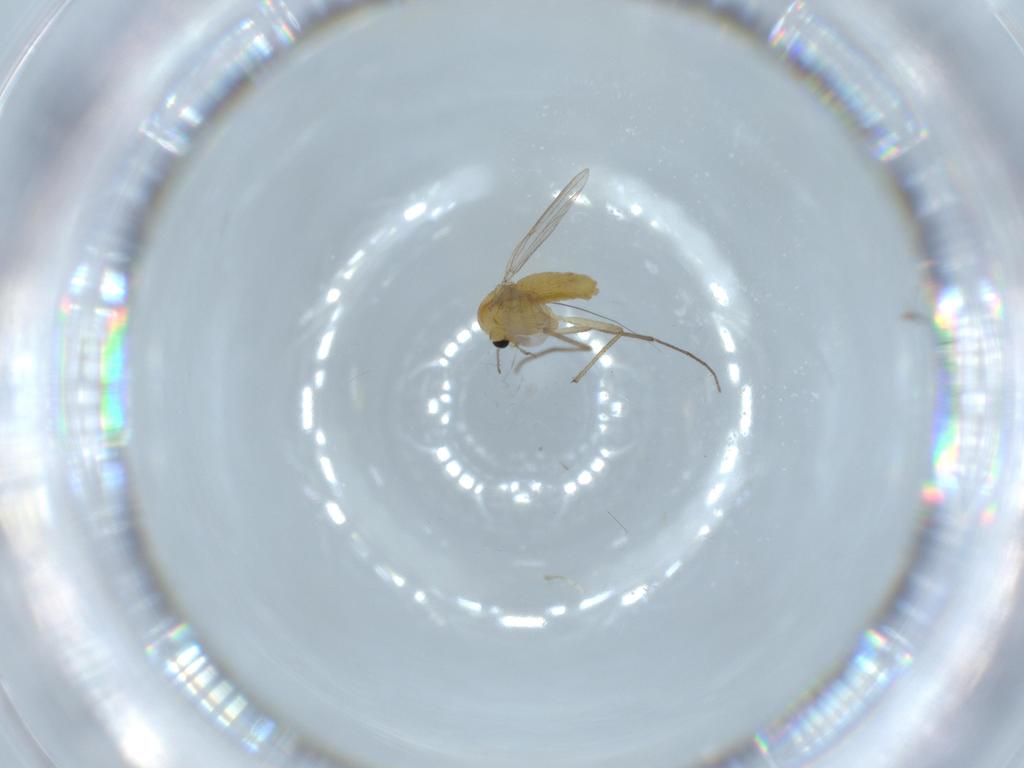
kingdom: Animalia
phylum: Arthropoda
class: Insecta
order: Diptera
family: Chironomidae
